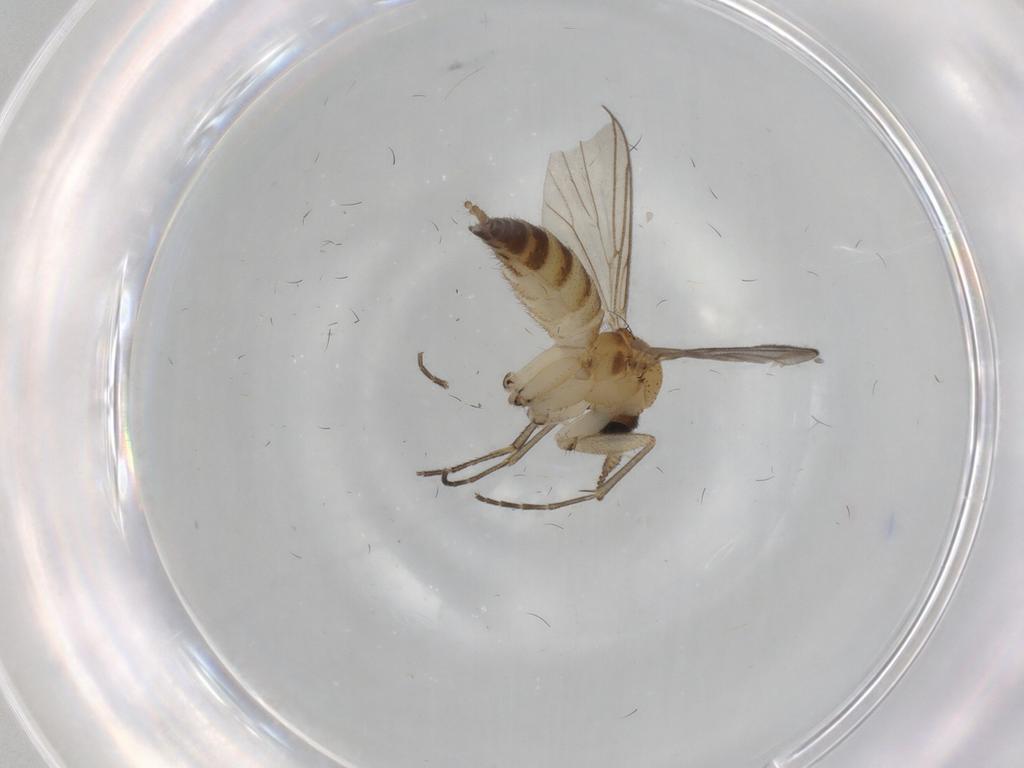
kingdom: Animalia
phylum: Arthropoda
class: Insecta
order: Diptera
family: Tabanidae
